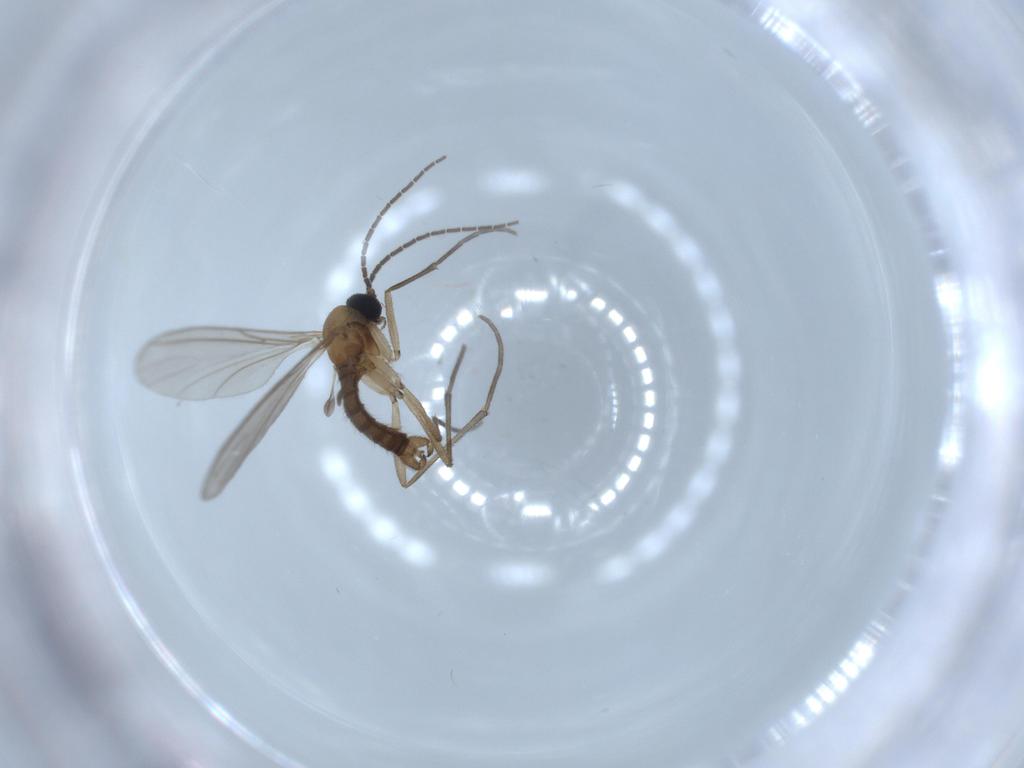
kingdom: Animalia
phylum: Arthropoda
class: Insecta
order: Diptera
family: Sciaridae
